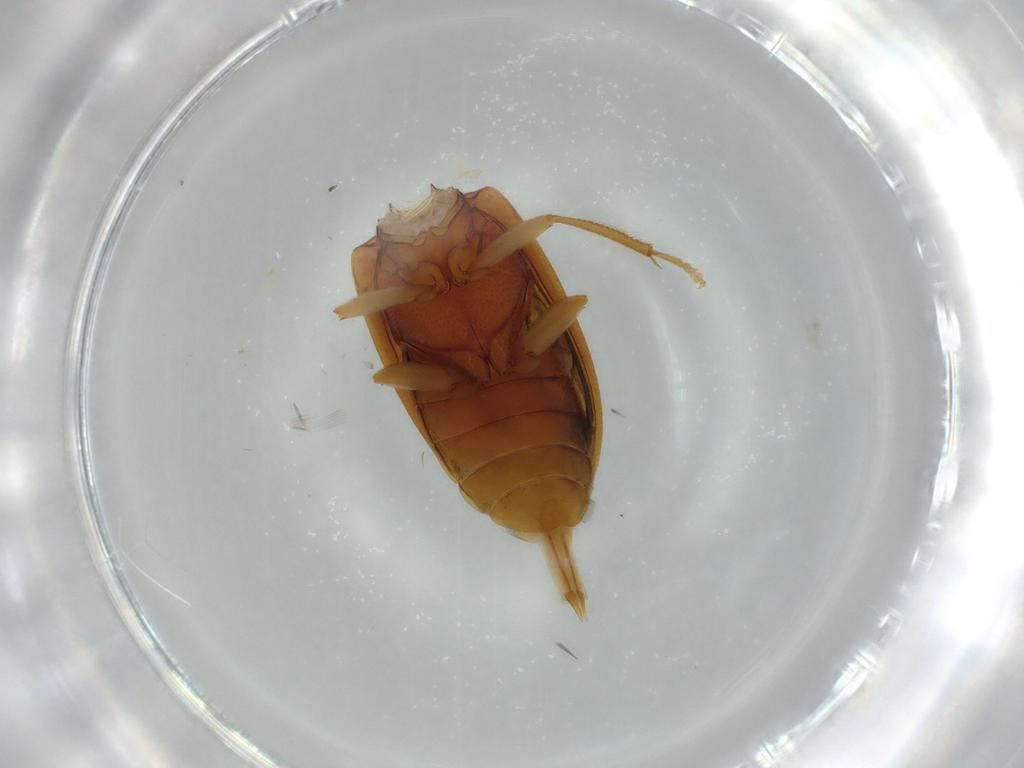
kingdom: Animalia
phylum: Arthropoda
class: Insecta
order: Coleoptera
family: Ptilodactylidae
